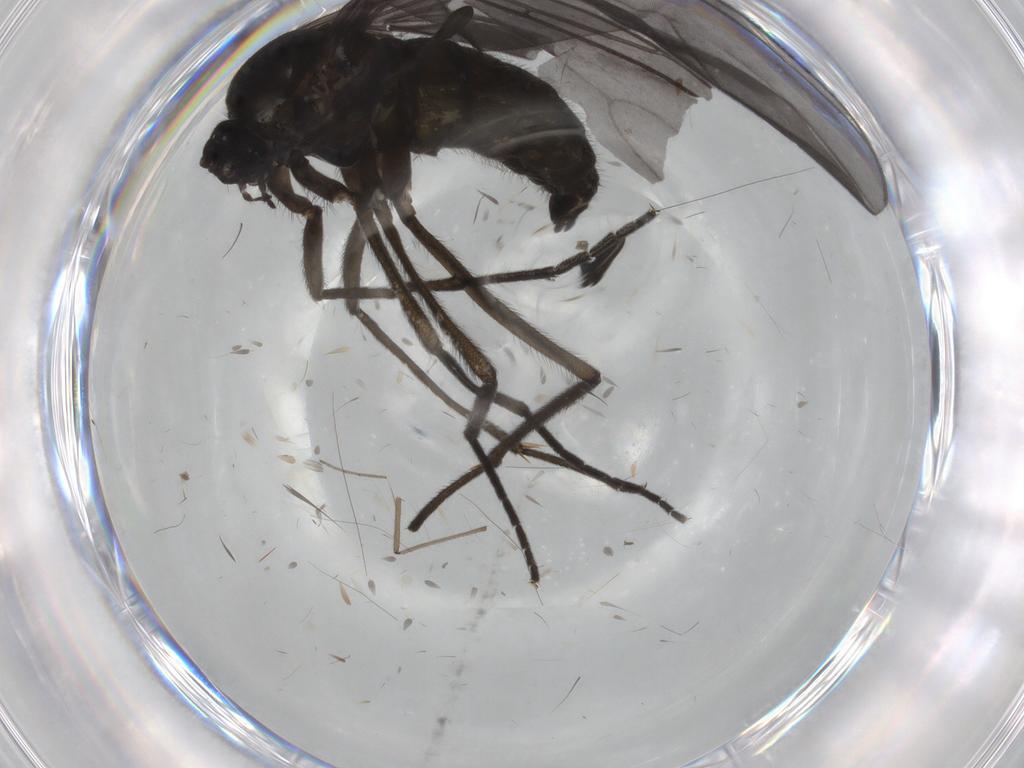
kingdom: Animalia
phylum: Arthropoda
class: Insecta
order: Diptera
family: Sciaridae
